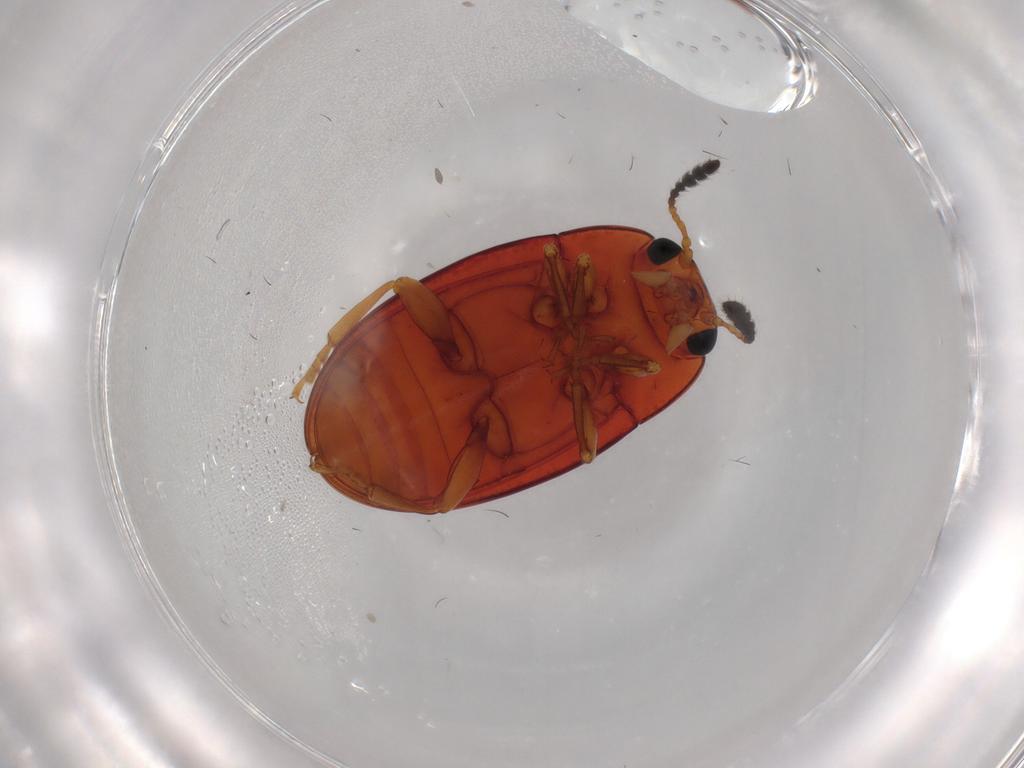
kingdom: Animalia
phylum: Arthropoda
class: Insecta
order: Coleoptera
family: Erotylidae
